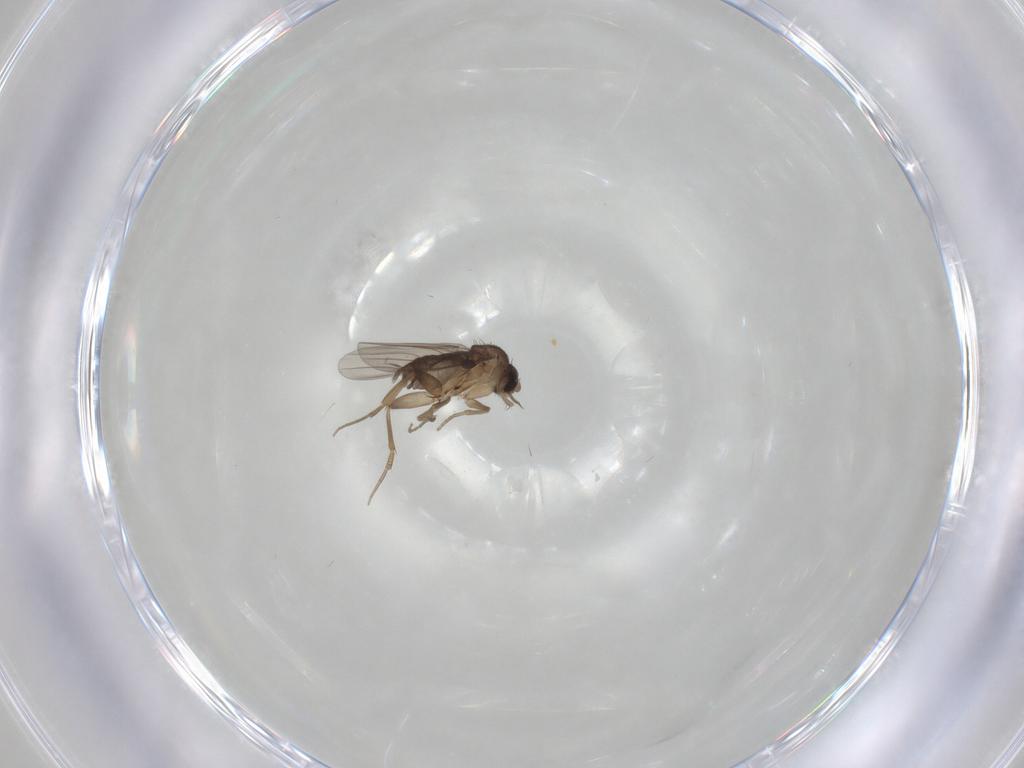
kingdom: Animalia
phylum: Arthropoda
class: Insecta
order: Diptera
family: Phoridae
